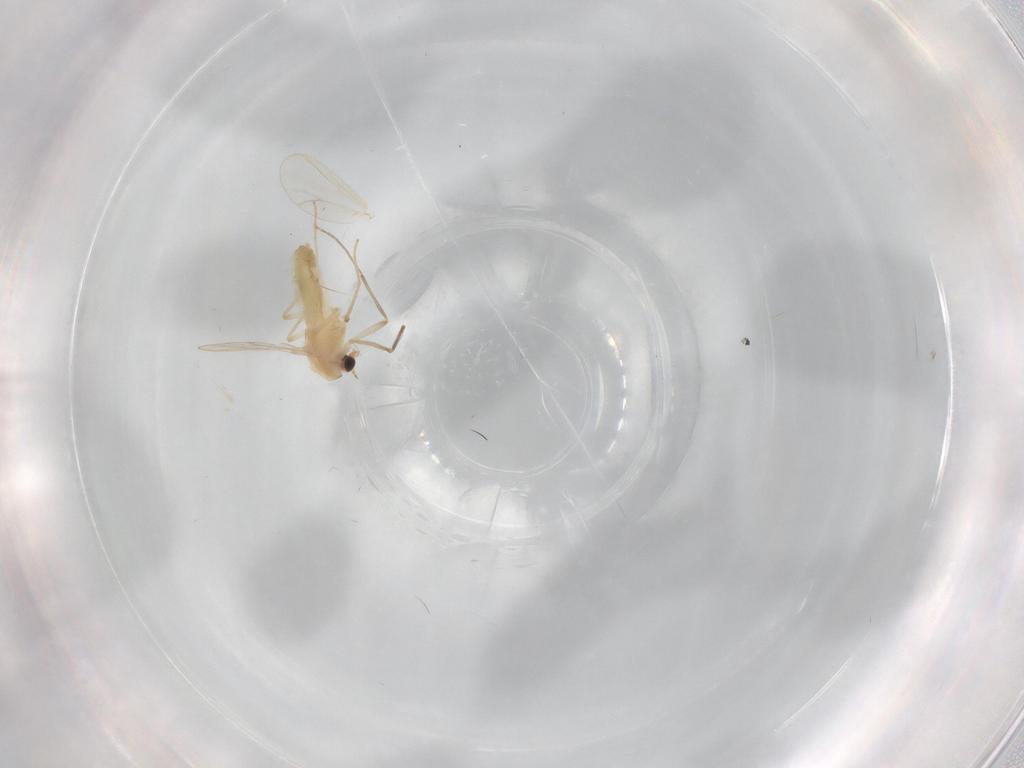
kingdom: Animalia
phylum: Arthropoda
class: Insecta
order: Diptera
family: Chironomidae
